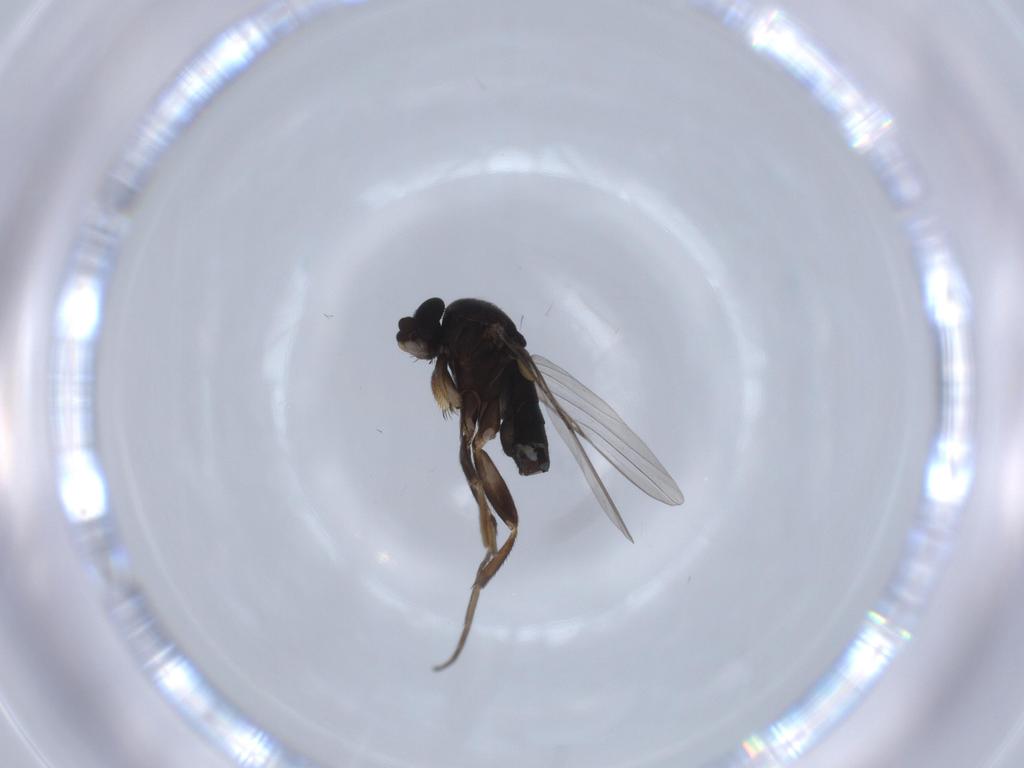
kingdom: Animalia
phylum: Arthropoda
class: Insecta
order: Diptera
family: Phoridae
